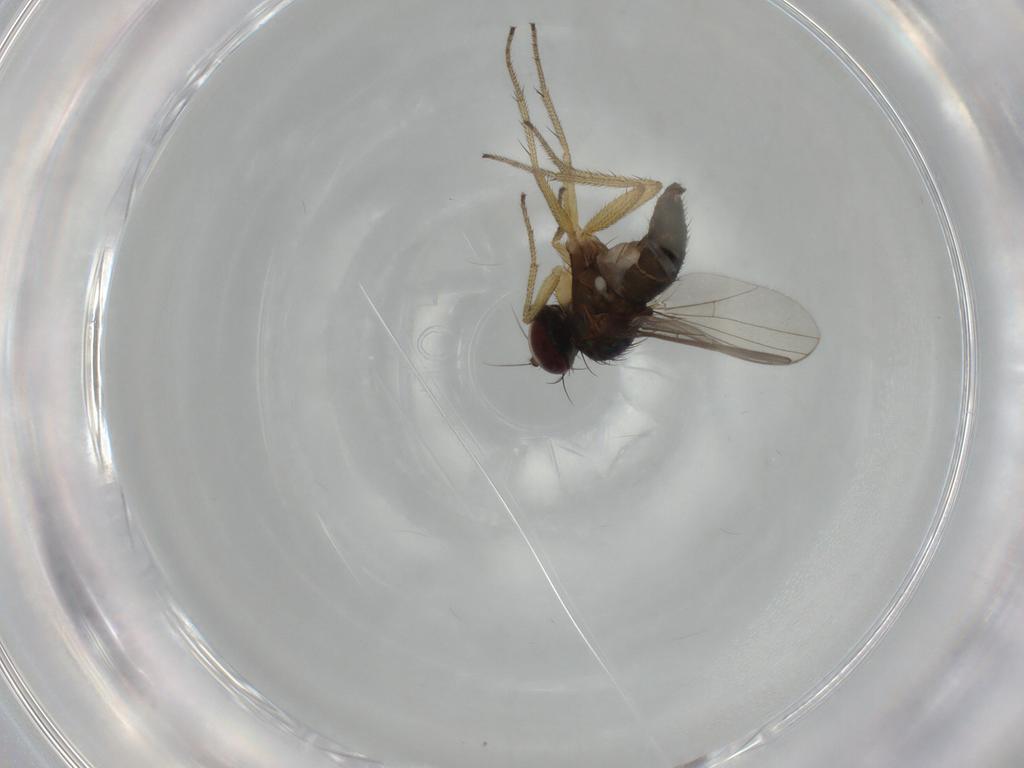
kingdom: Animalia
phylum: Arthropoda
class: Insecta
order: Diptera
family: Dolichopodidae
